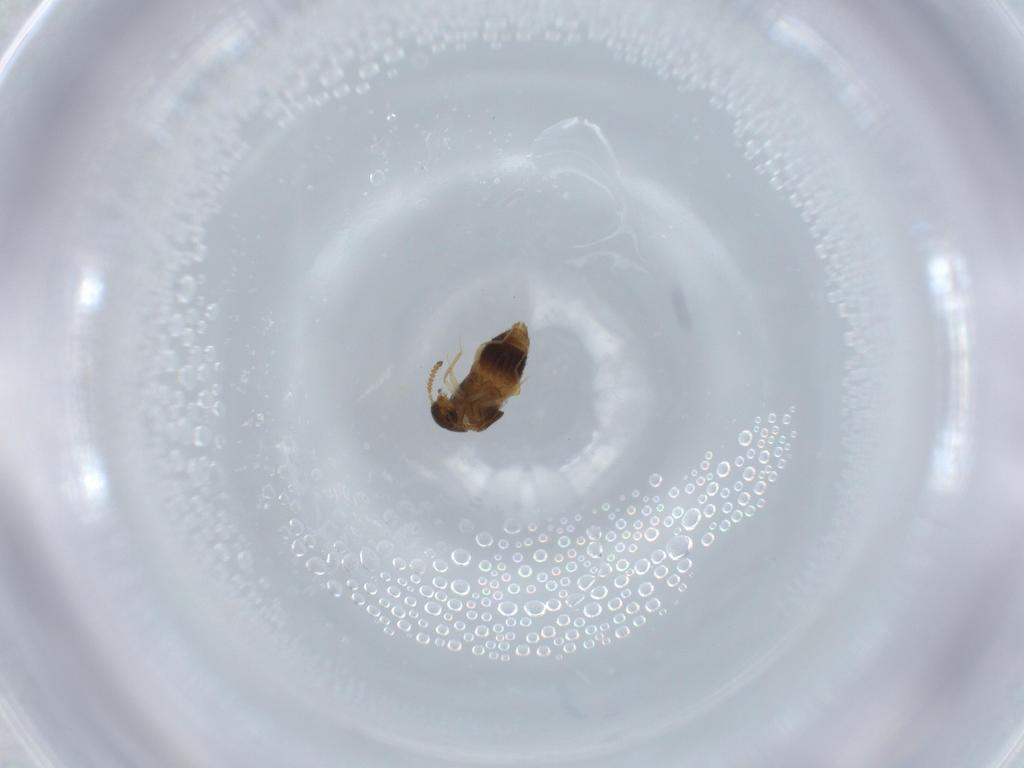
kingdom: Animalia
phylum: Arthropoda
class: Insecta
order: Coleoptera
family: Staphylinidae
